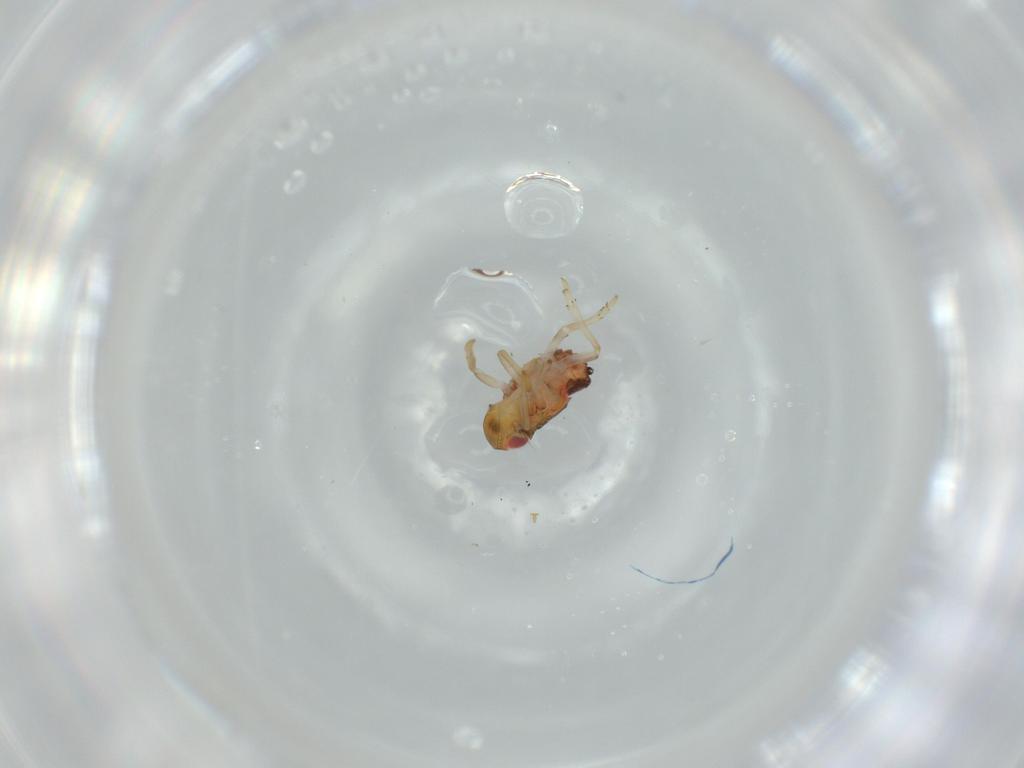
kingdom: Animalia
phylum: Arthropoda
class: Insecta
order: Hemiptera
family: Issidae
